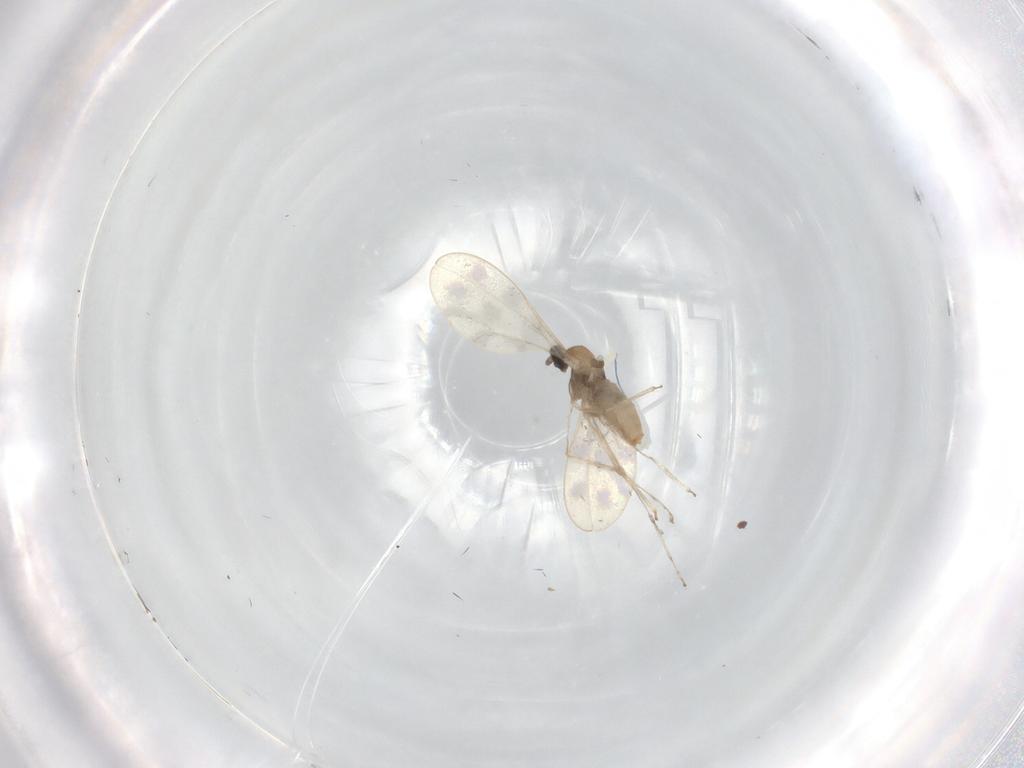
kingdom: Animalia
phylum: Arthropoda
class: Insecta
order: Diptera
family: Cecidomyiidae
